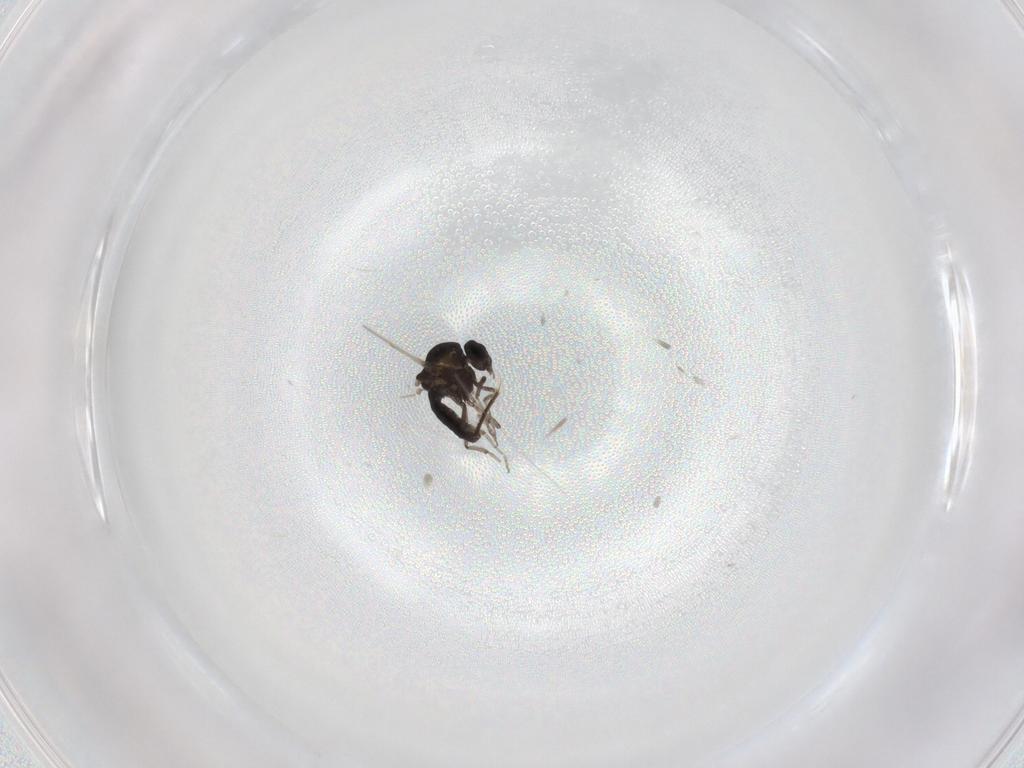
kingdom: Animalia
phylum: Arthropoda
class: Insecta
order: Diptera
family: Ceratopogonidae
